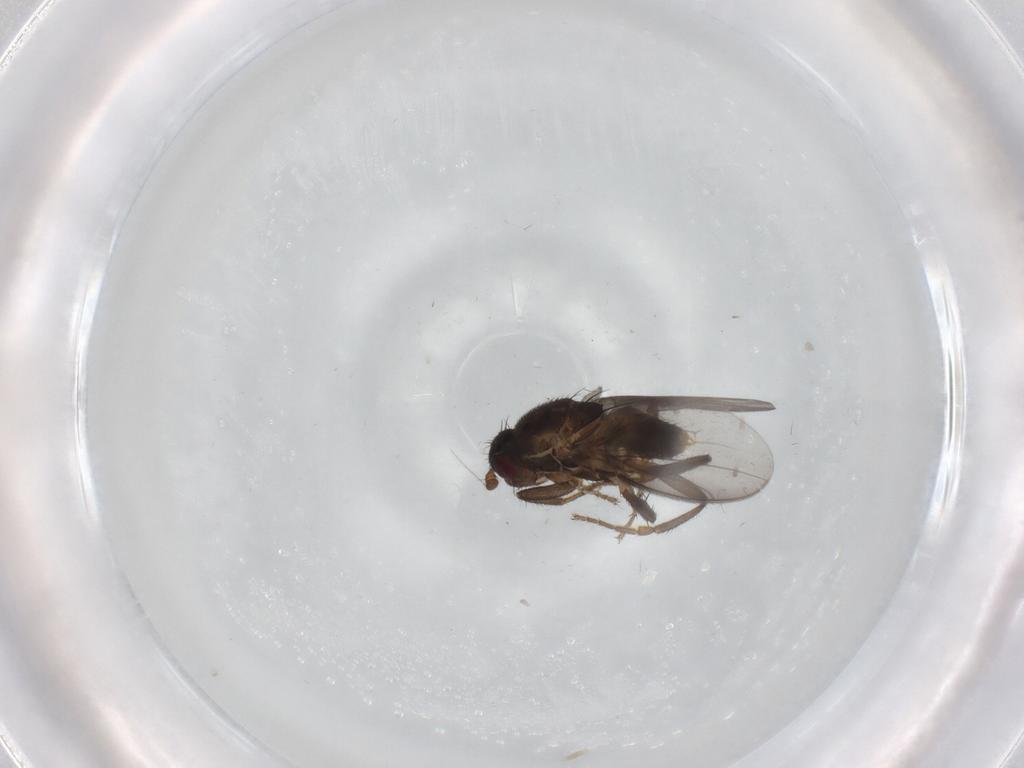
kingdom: Animalia
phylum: Arthropoda
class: Insecta
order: Diptera
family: Sphaeroceridae
